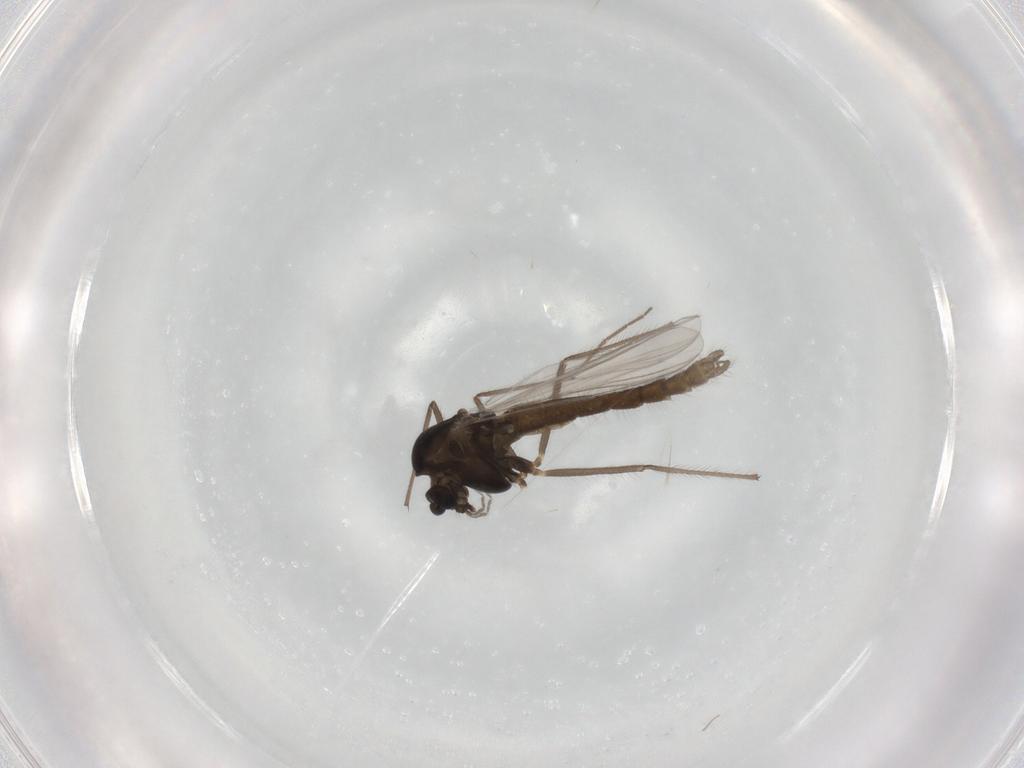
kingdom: Animalia
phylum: Arthropoda
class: Insecta
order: Diptera
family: Chironomidae
